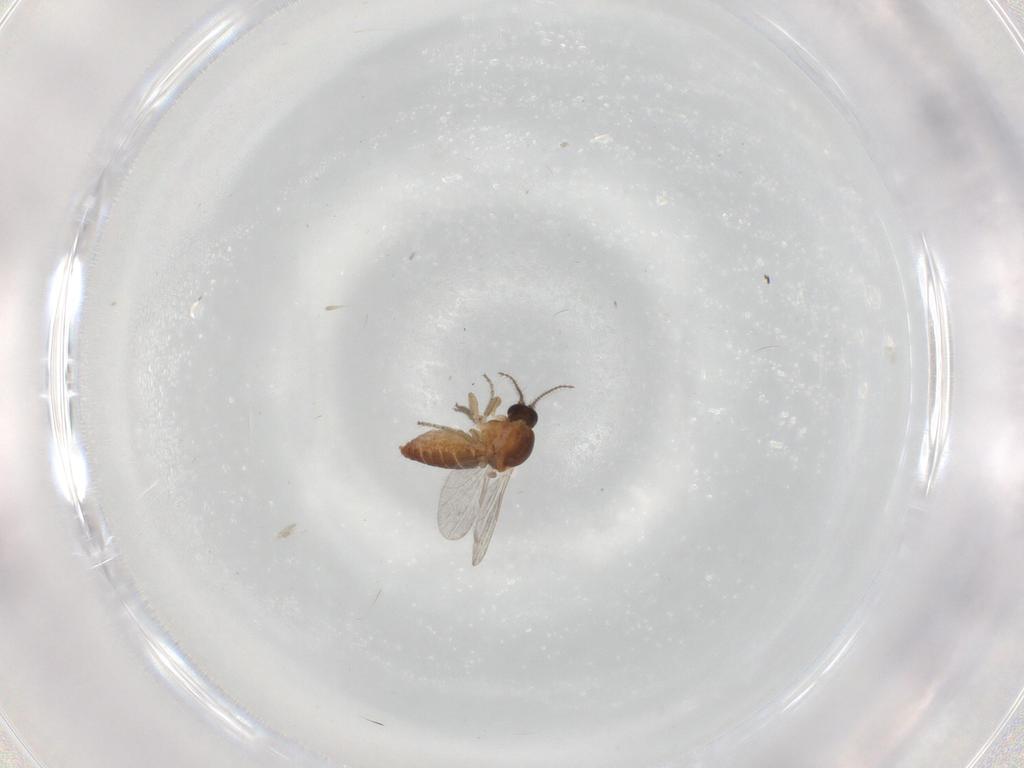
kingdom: Animalia
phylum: Arthropoda
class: Insecta
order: Diptera
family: Ceratopogonidae
